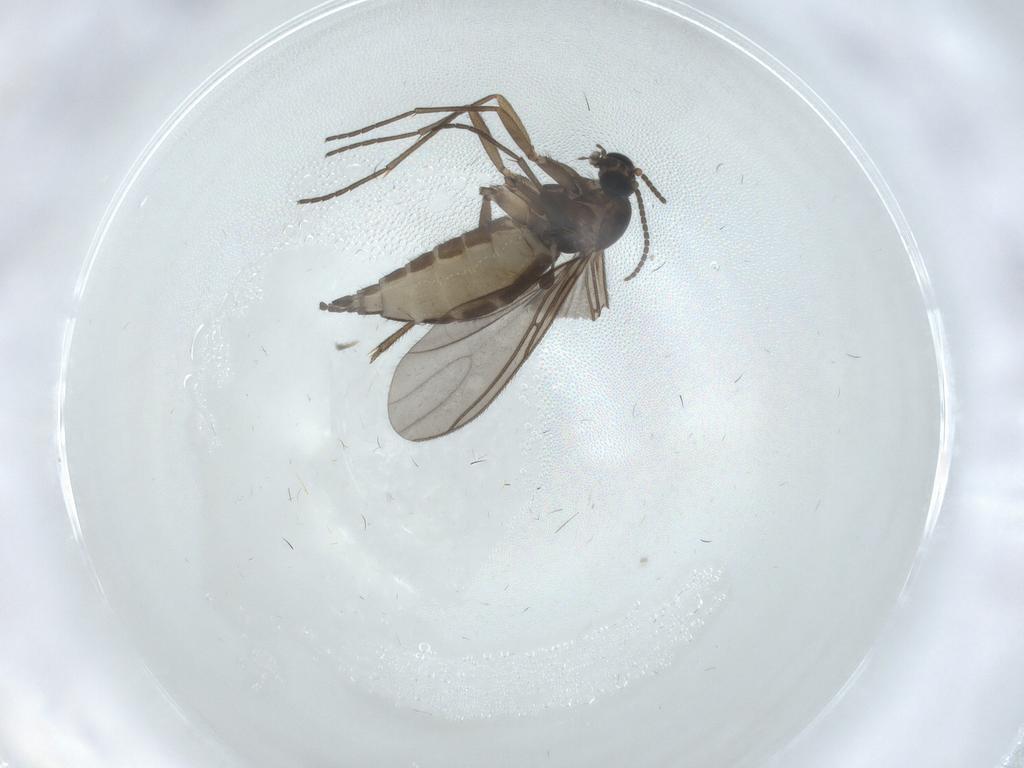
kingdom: Animalia
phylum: Arthropoda
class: Insecta
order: Diptera
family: Sciaridae
